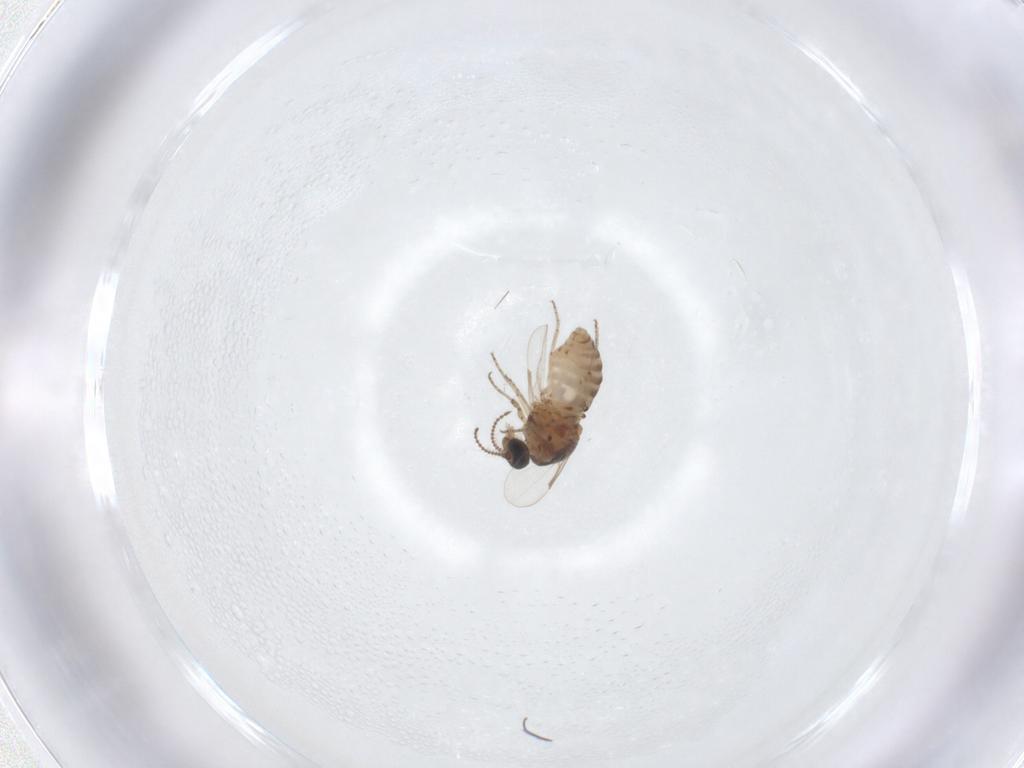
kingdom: Animalia
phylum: Arthropoda
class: Insecta
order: Diptera
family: Ceratopogonidae
